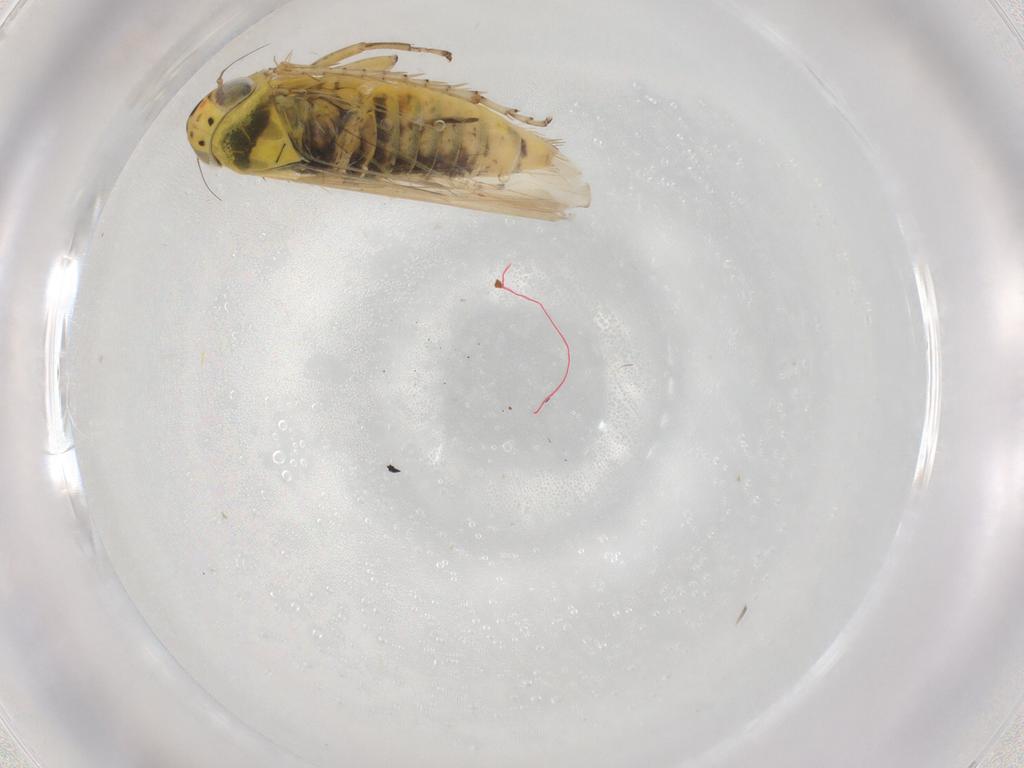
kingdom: Animalia
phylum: Arthropoda
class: Insecta
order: Hemiptera
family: Cicadellidae
